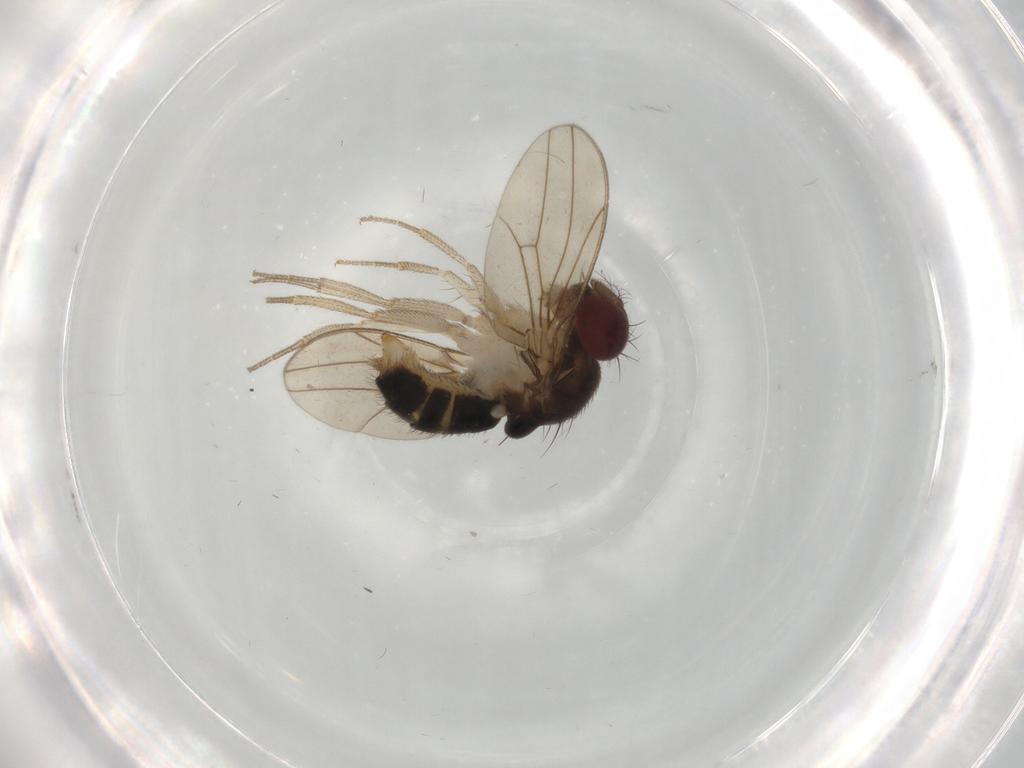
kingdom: Animalia
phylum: Arthropoda
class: Insecta
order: Diptera
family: Drosophilidae
